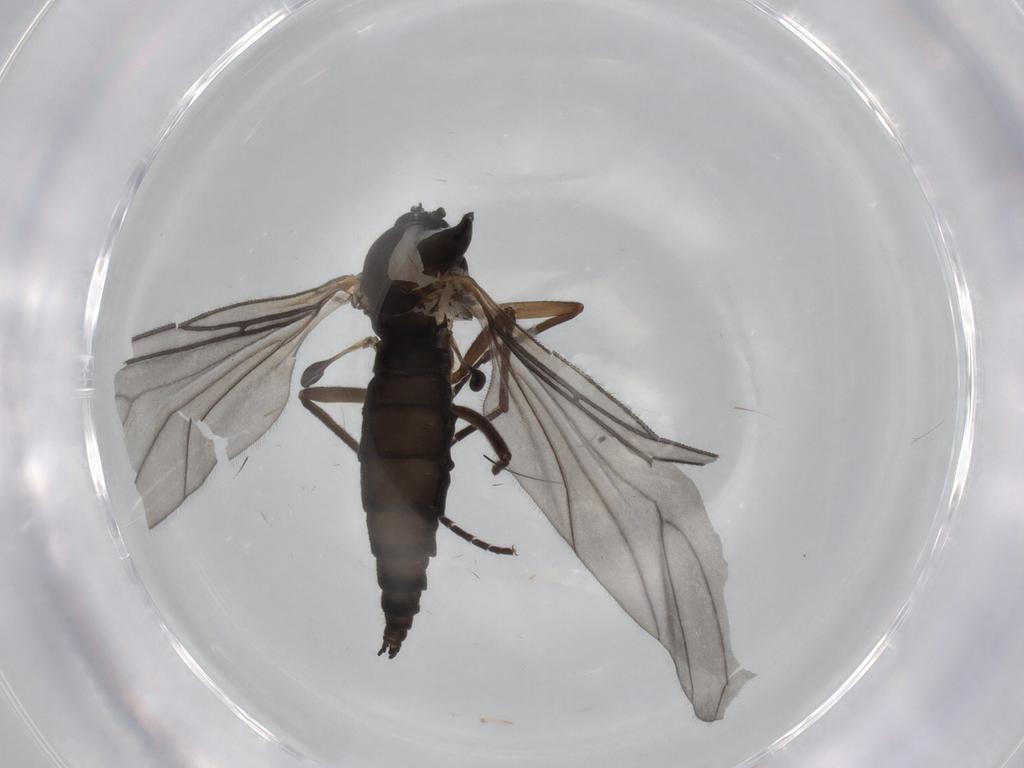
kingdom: Animalia
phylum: Arthropoda
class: Insecta
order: Diptera
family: Sciaridae
